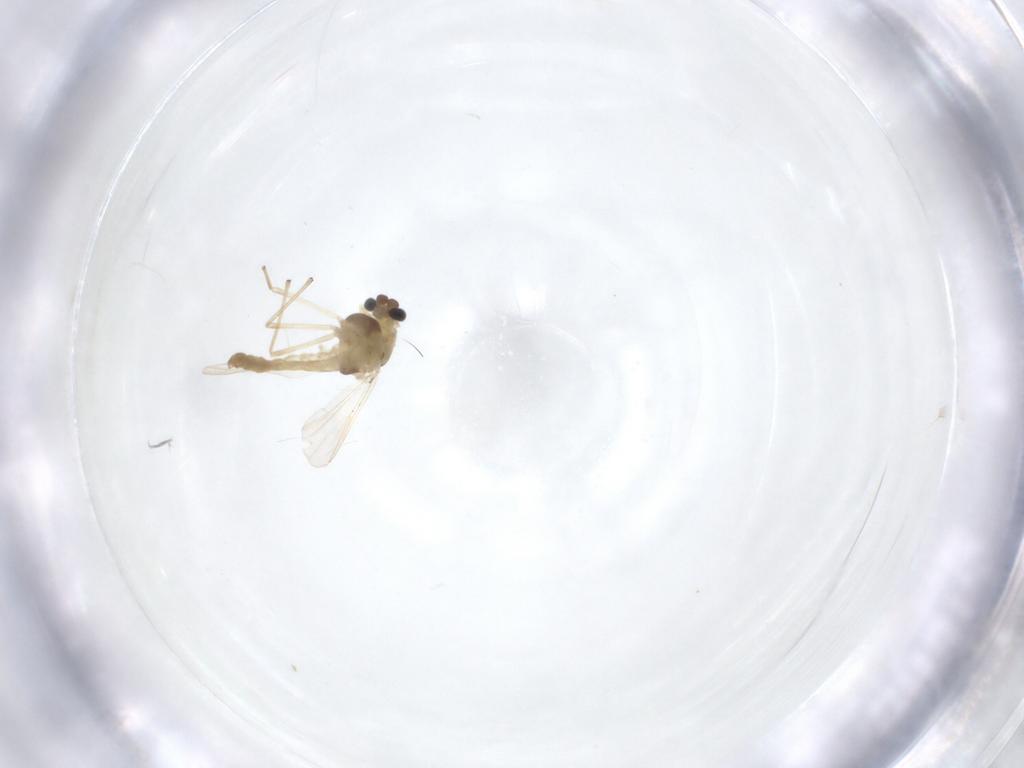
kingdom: Animalia
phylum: Arthropoda
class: Insecta
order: Diptera
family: Chironomidae
